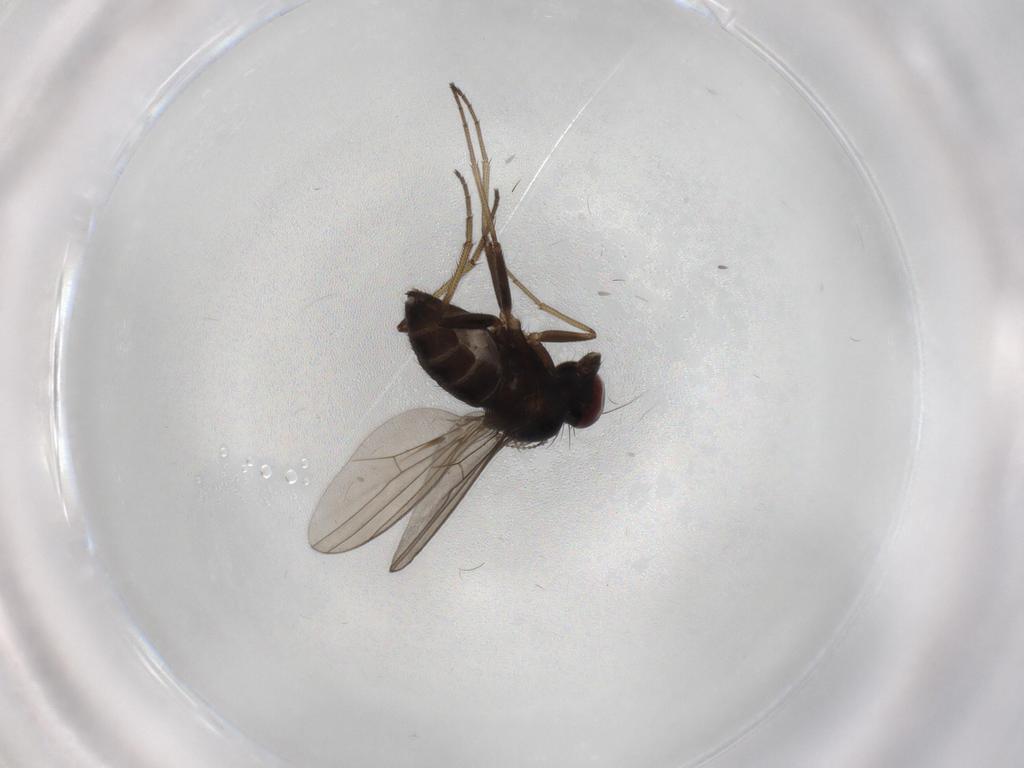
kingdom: Animalia
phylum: Arthropoda
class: Insecta
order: Diptera
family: Dolichopodidae
